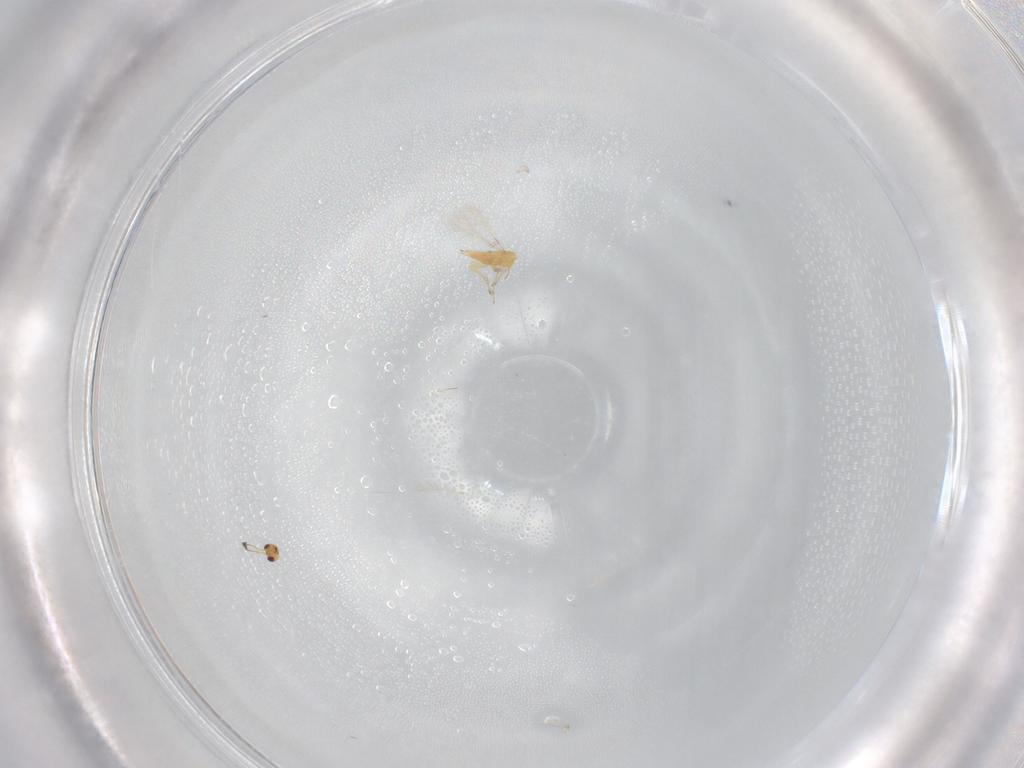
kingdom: Animalia
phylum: Arthropoda
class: Insecta
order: Hymenoptera
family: Mymaridae
